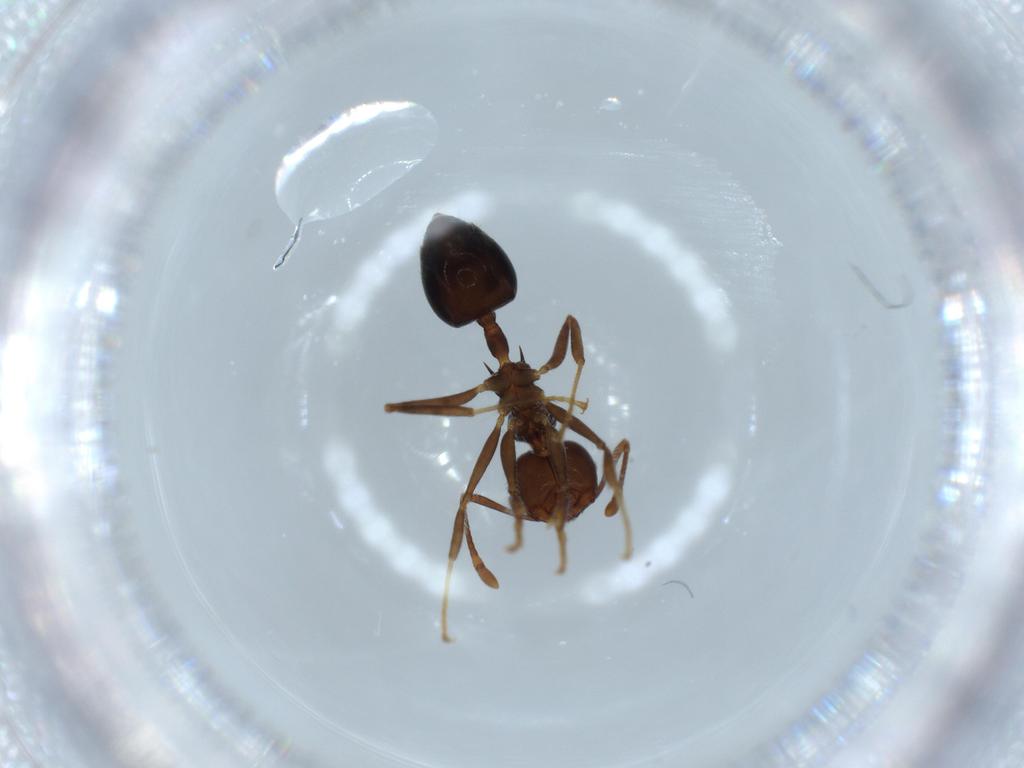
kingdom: Animalia
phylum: Arthropoda
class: Insecta
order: Hymenoptera
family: Formicidae
